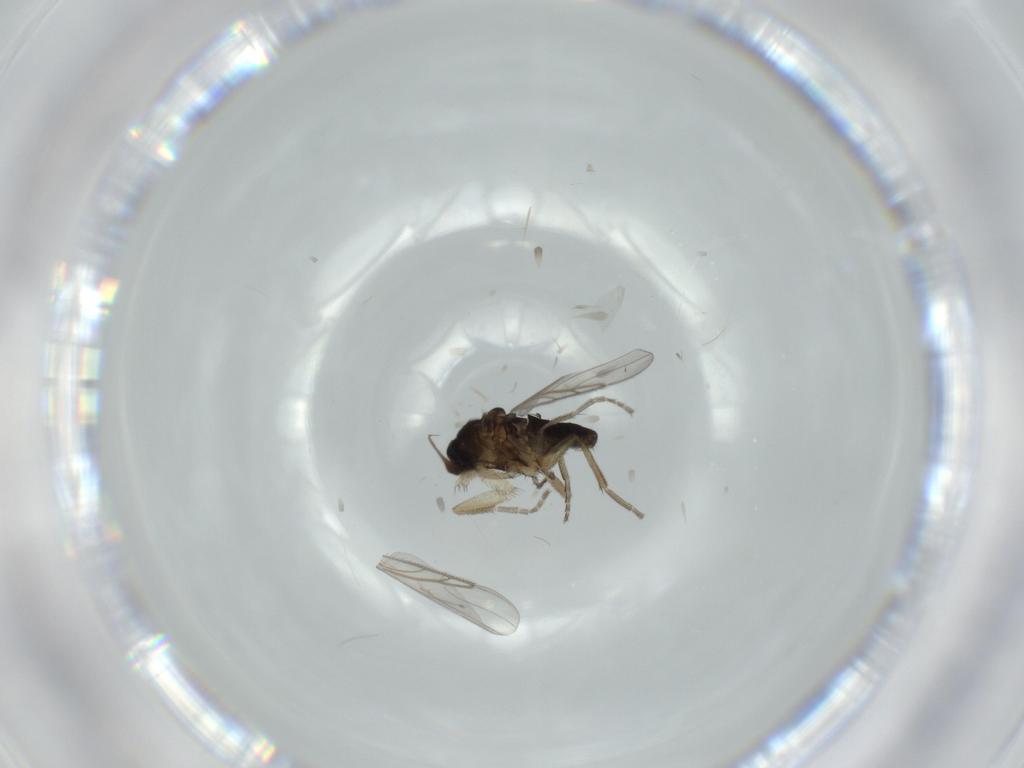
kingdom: Animalia
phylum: Arthropoda
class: Insecta
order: Diptera
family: Phoridae
